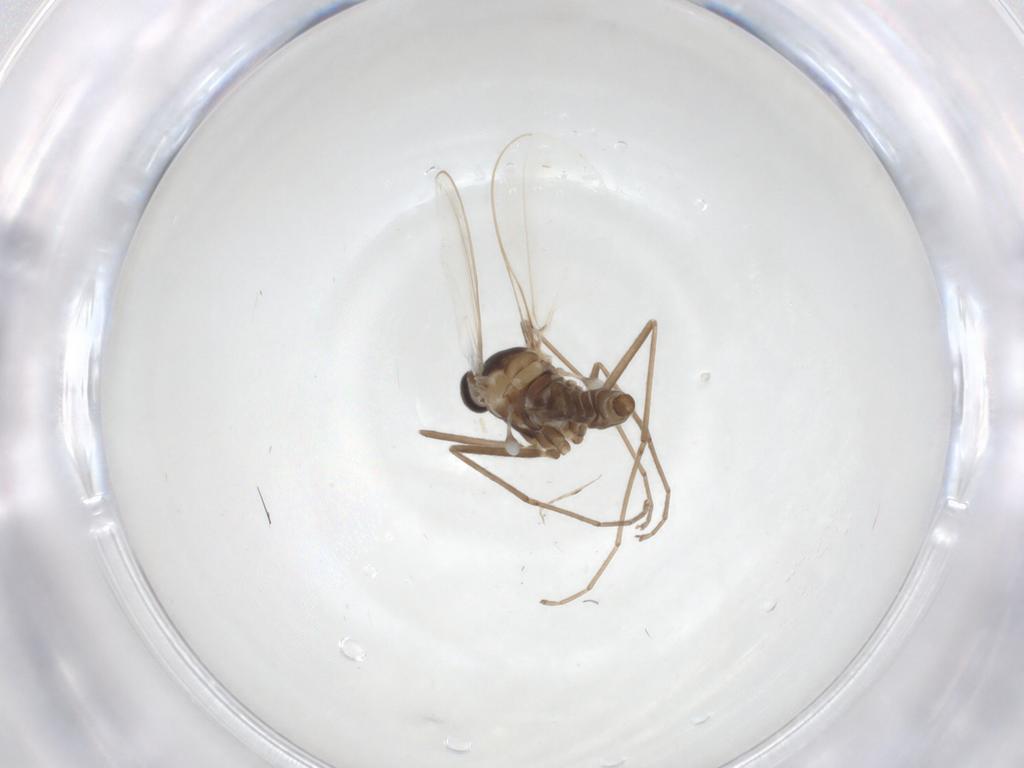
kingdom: Animalia
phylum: Arthropoda
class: Insecta
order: Diptera
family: Cecidomyiidae
